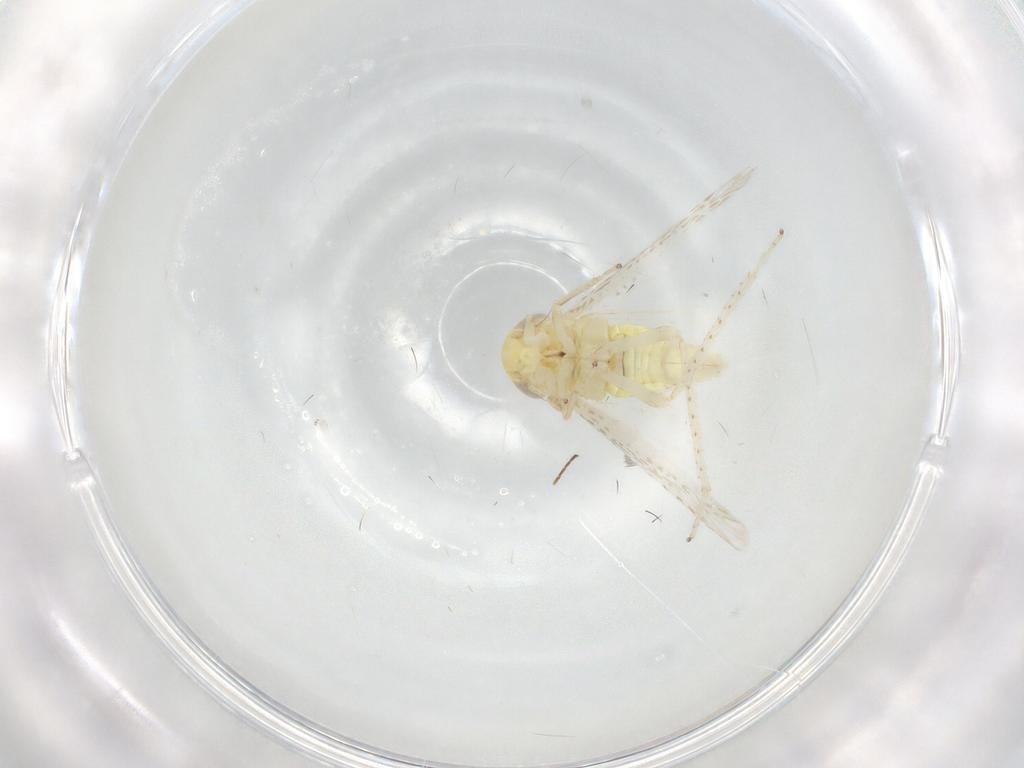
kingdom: Animalia
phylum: Arthropoda
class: Insecta
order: Hemiptera
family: Cicadellidae
